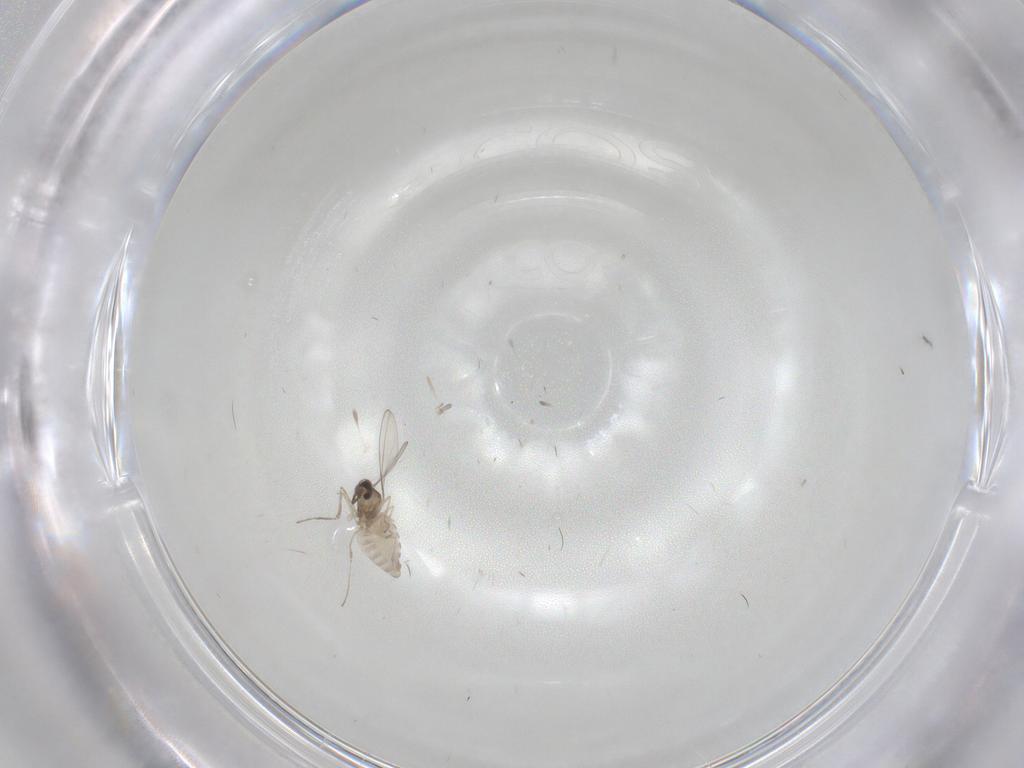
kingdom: Animalia
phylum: Arthropoda
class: Insecta
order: Diptera
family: Cecidomyiidae
